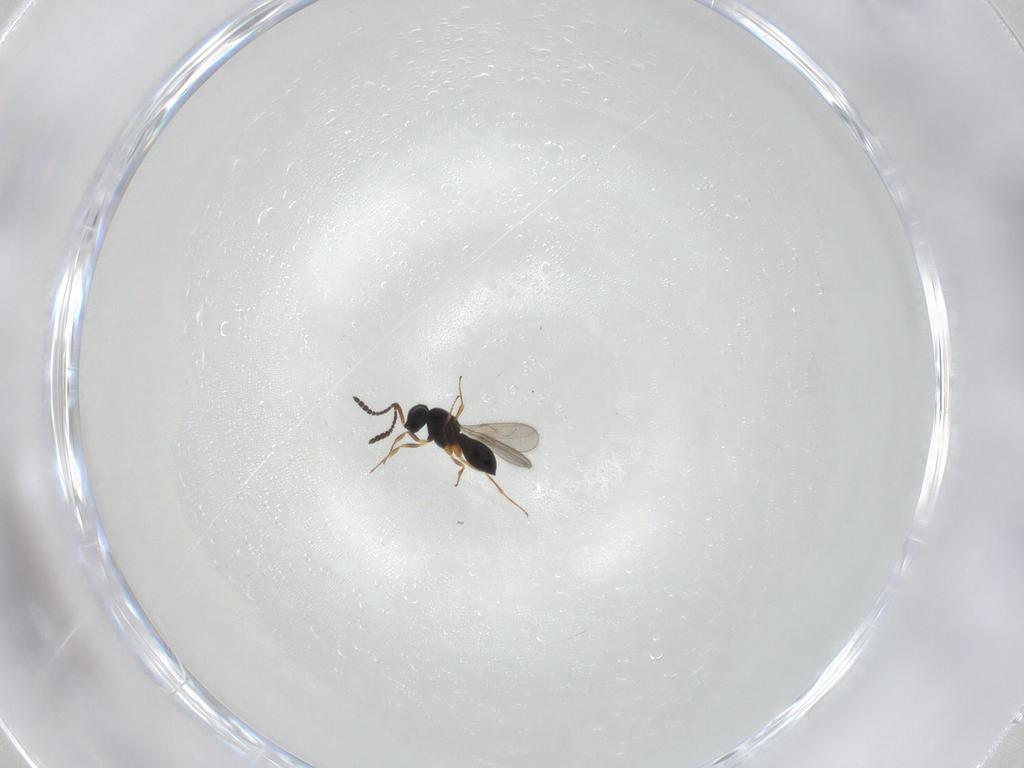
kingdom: Animalia
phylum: Arthropoda
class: Insecta
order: Hymenoptera
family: Scelionidae
